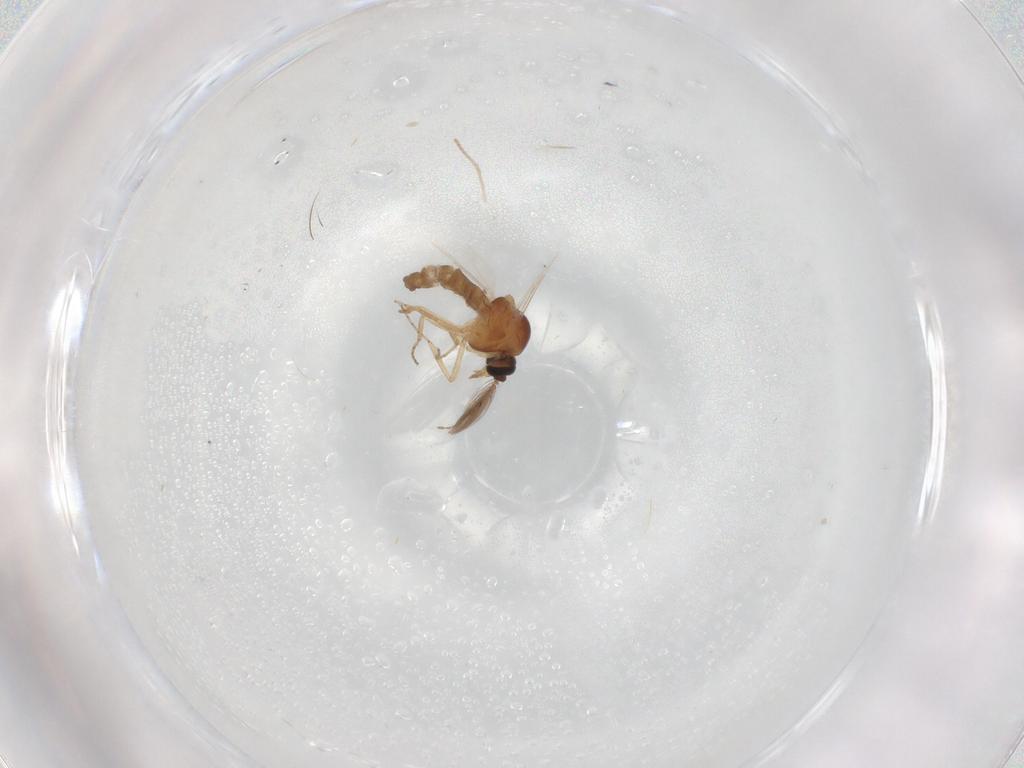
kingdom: Animalia
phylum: Arthropoda
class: Insecta
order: Diptera
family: Ceratopogonidae
